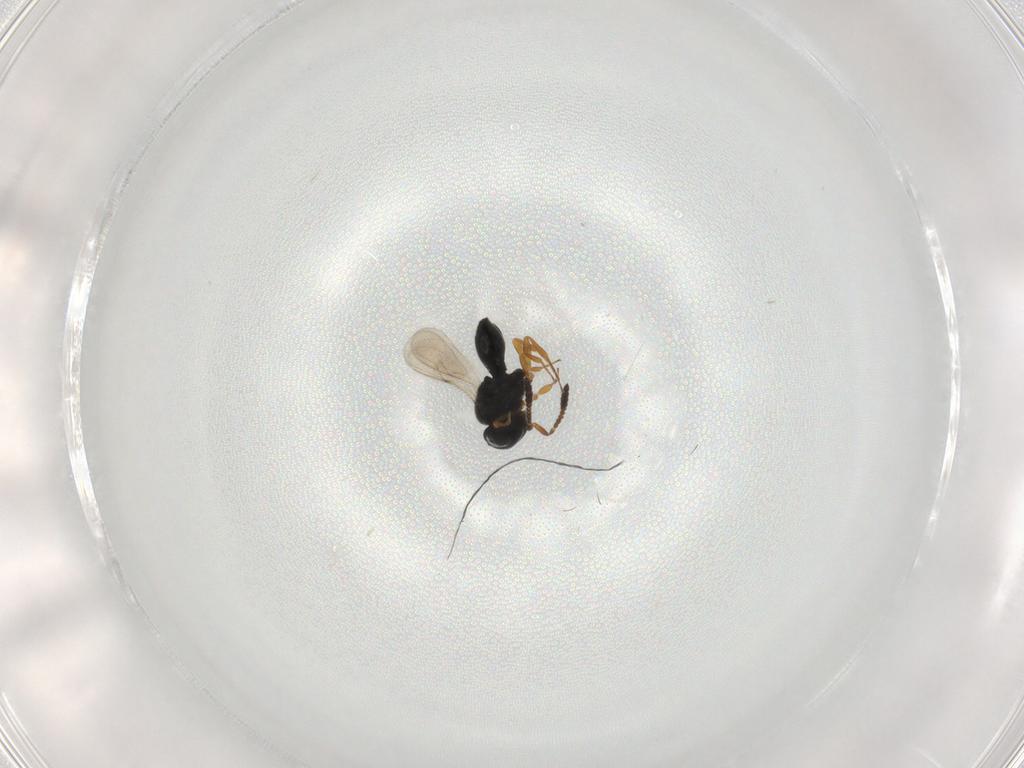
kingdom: Animalia
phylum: Arthropoda
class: Insecta
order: Hymenoptera
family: Scelionidae
